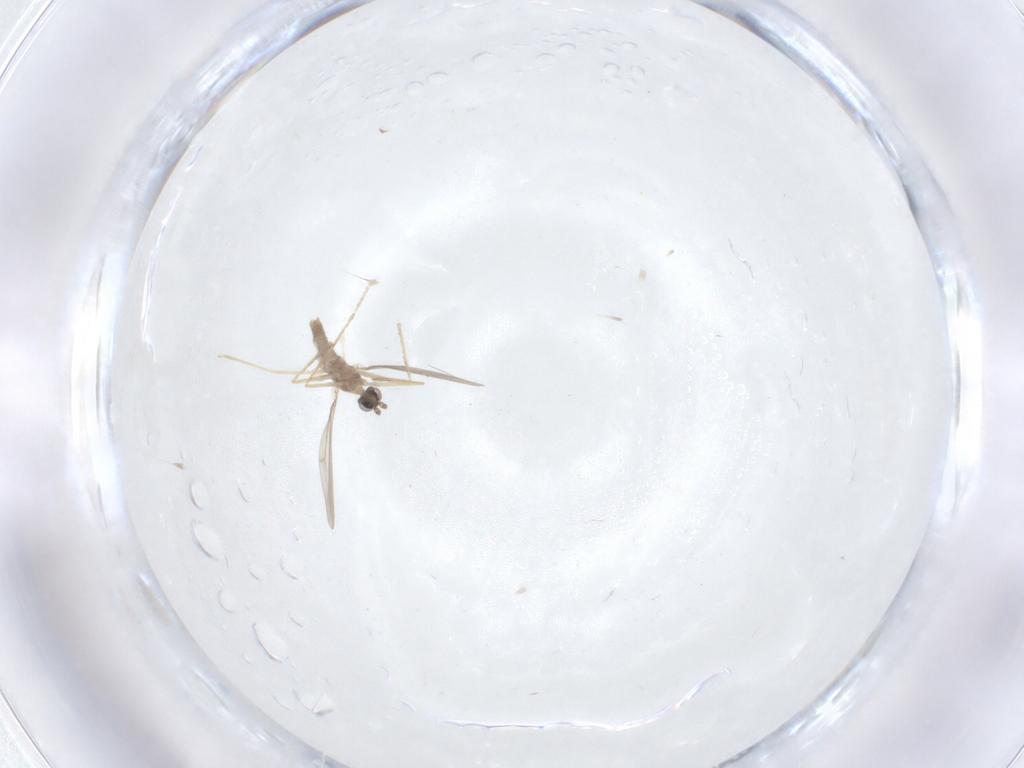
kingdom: Animalia
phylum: Arthropoda
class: Insecta
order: Diptera
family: Cecidomyiidae
